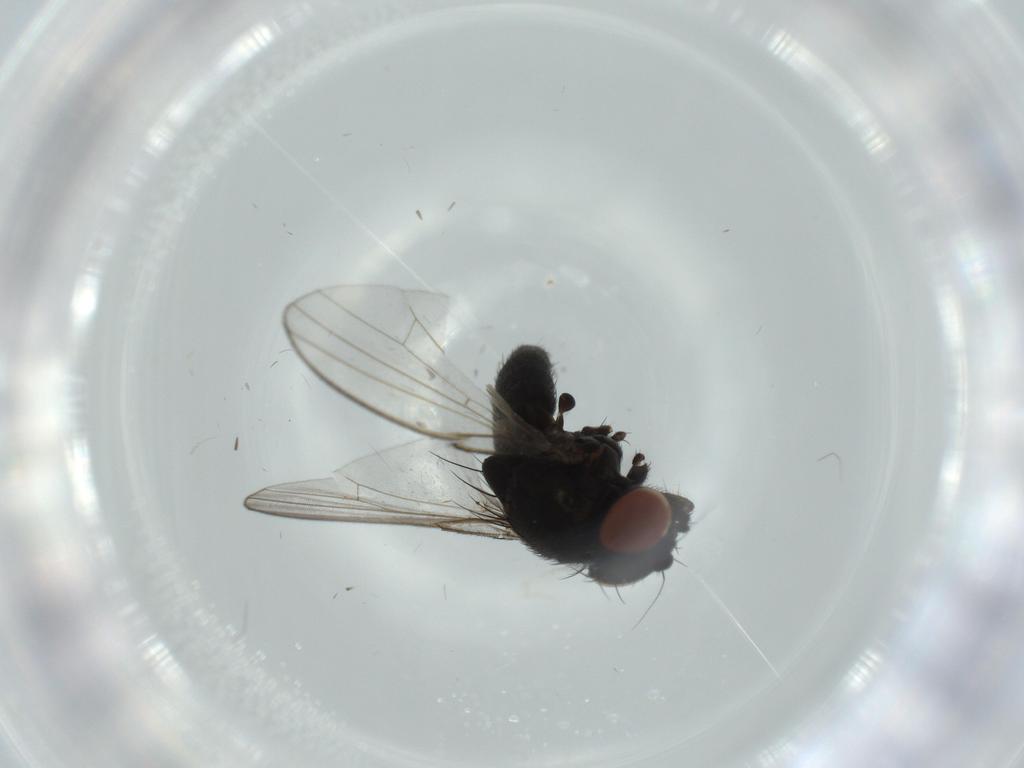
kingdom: Animalia
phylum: Arthropoda
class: Insecta
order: Diptera
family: Milichiidae
